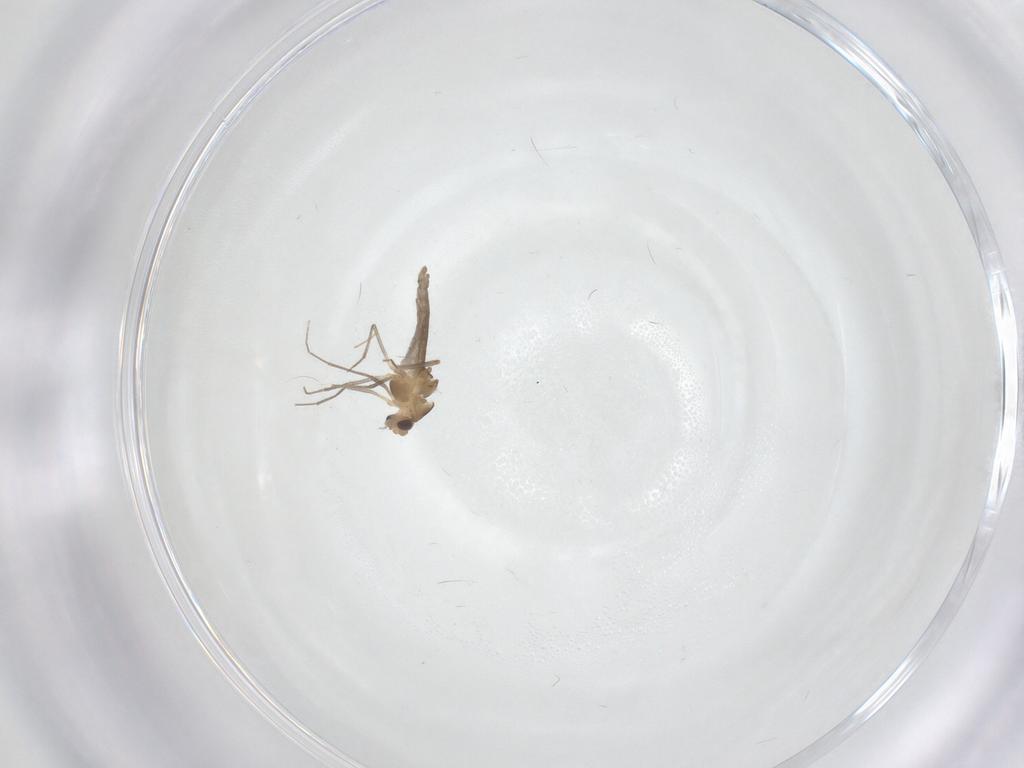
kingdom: Animalia
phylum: Arthropoda
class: Insecta
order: Diptera
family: Chironomidae
